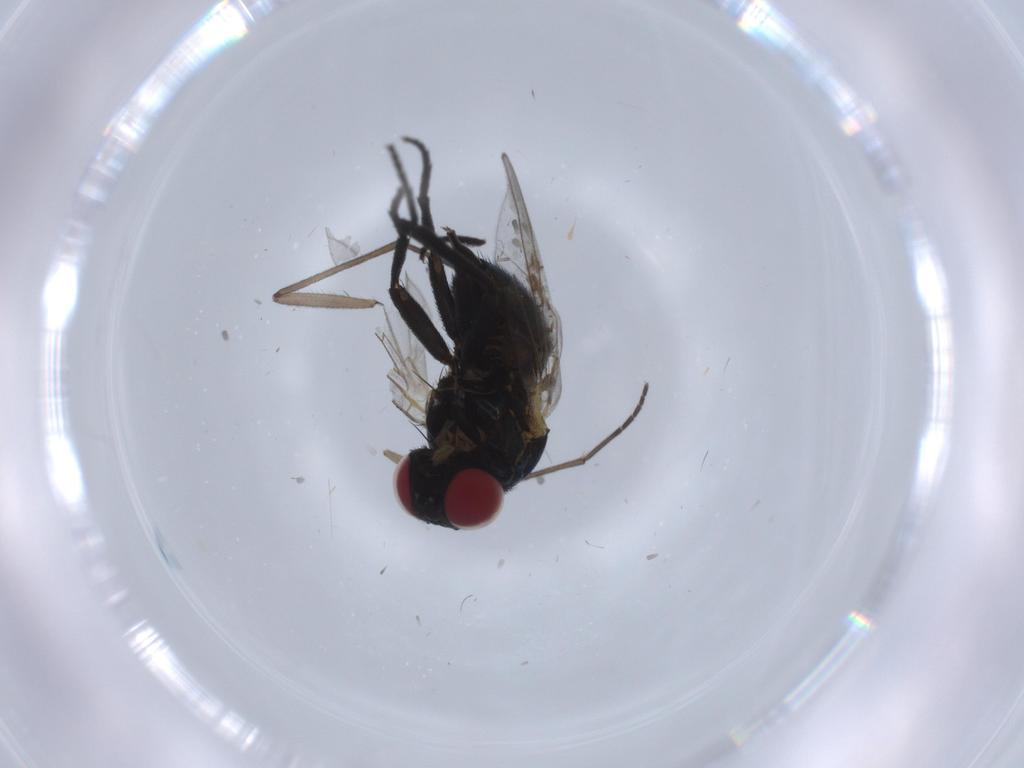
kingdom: Animalia
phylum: Arthropoda
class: Insecta
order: Diptera
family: Agromyzidae
